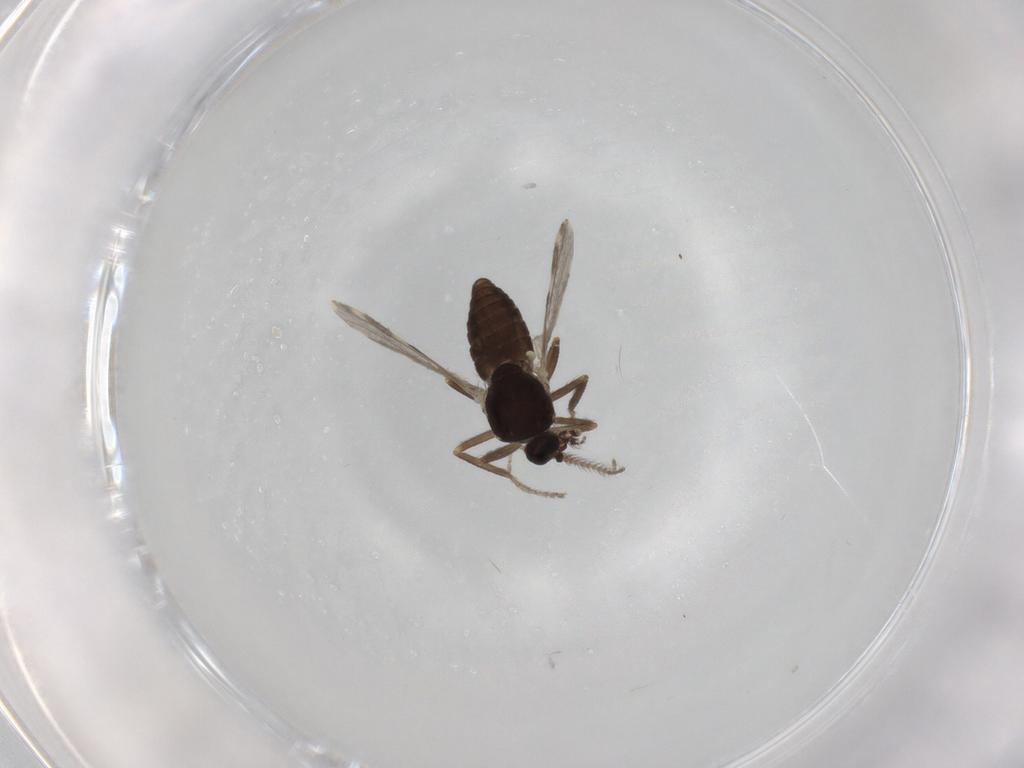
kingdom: Animalia
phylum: Arthropoda
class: Insecta
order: Diptera
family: Ceratopogonidae
